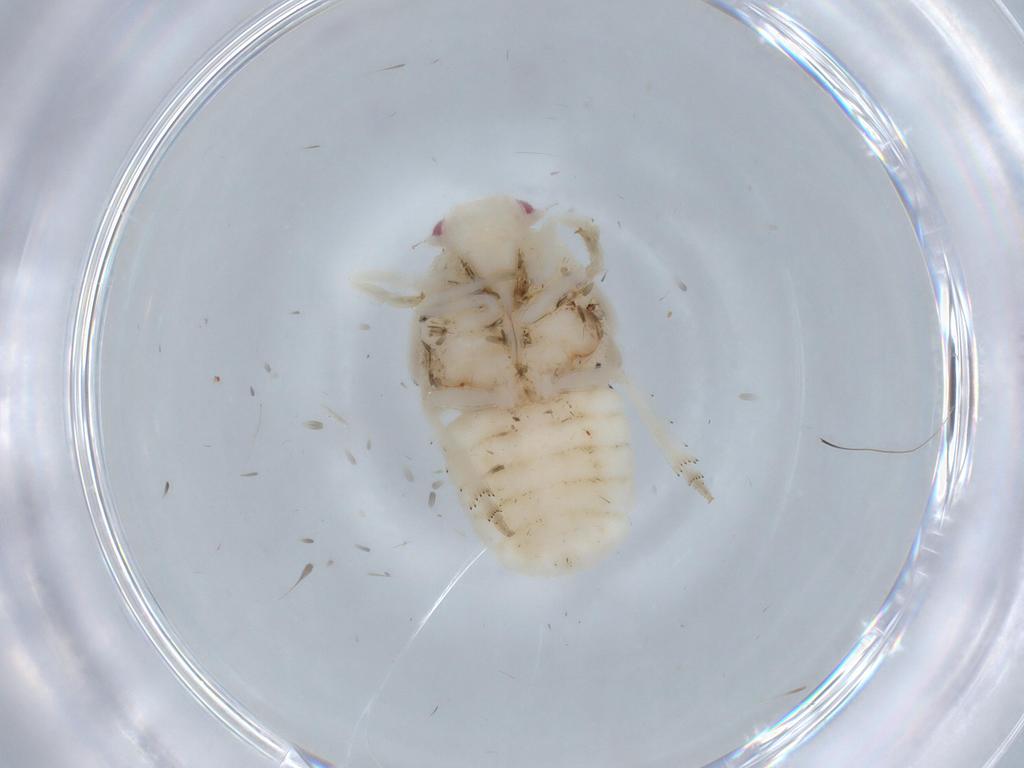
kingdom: Animalia
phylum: Arthropoda
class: Insecta
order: Hemiptera
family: Flatidae
